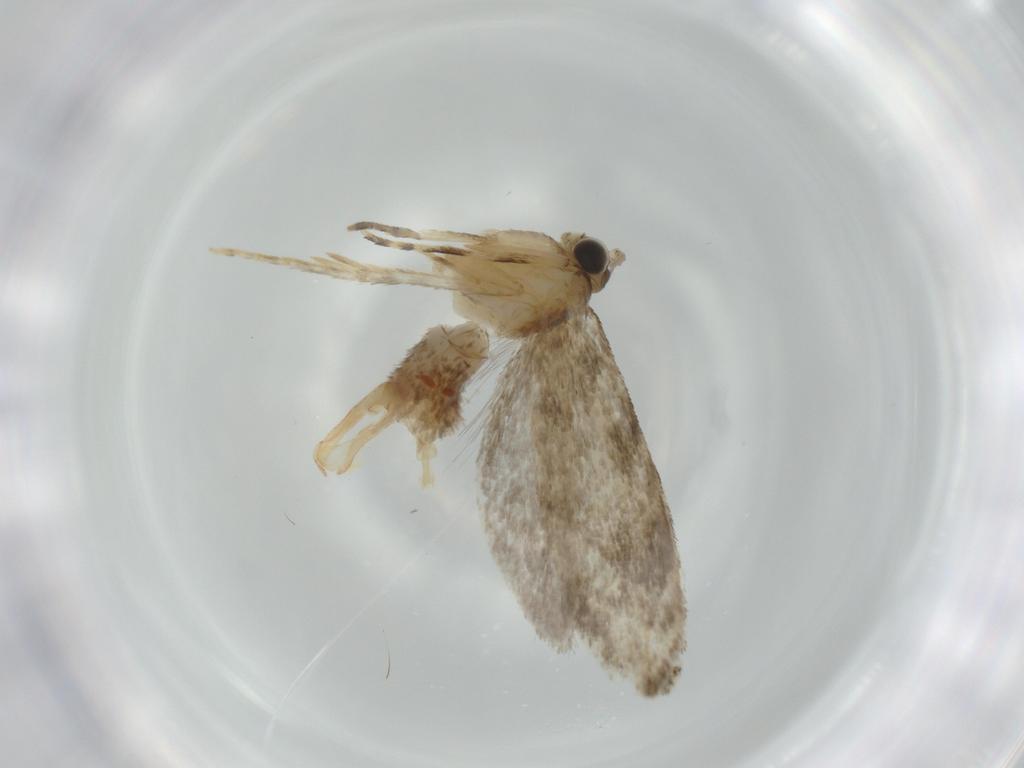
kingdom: Animalia
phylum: Arthropoda
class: Insecta
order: Lepidoptera
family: Tineidae
